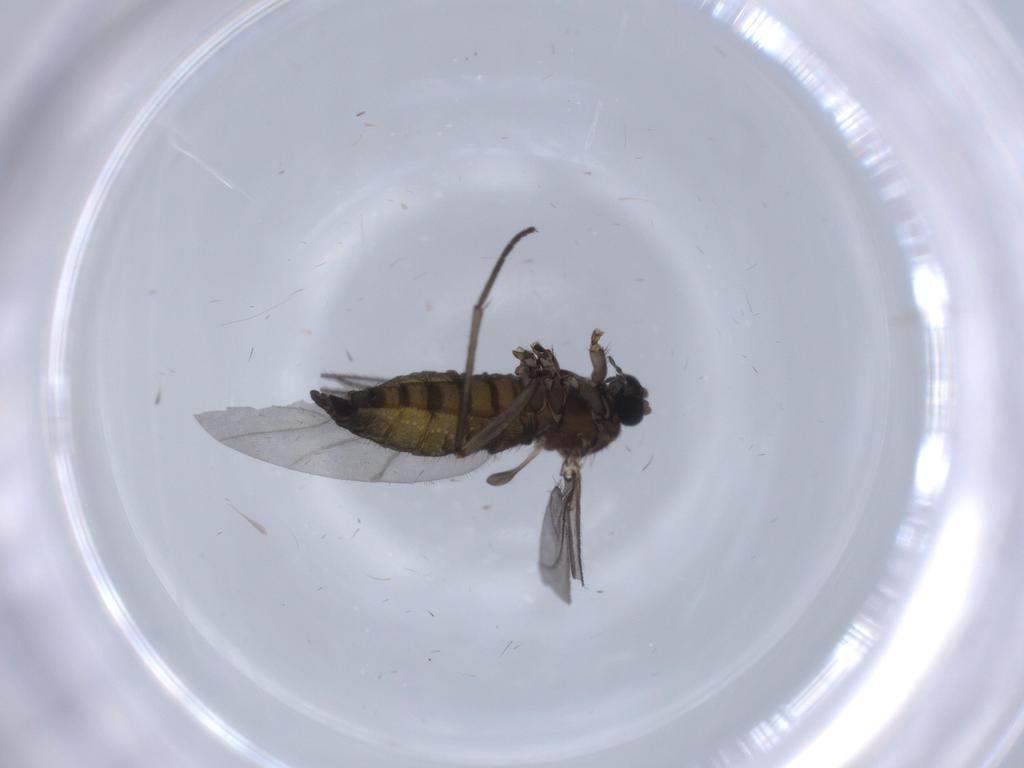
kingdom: Animalia
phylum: Arthropoda
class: Insecta
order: Diptera
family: Sciaridae
